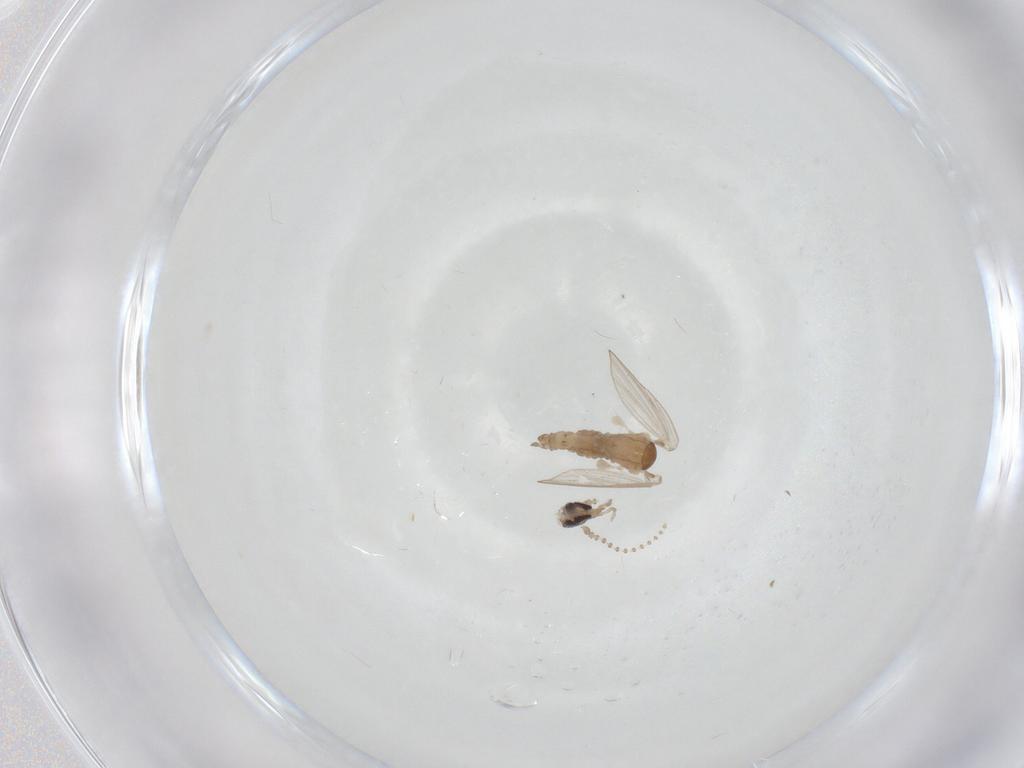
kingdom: Animalia
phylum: Arthropoda
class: Insecta
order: Diptera
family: Psychodidae
